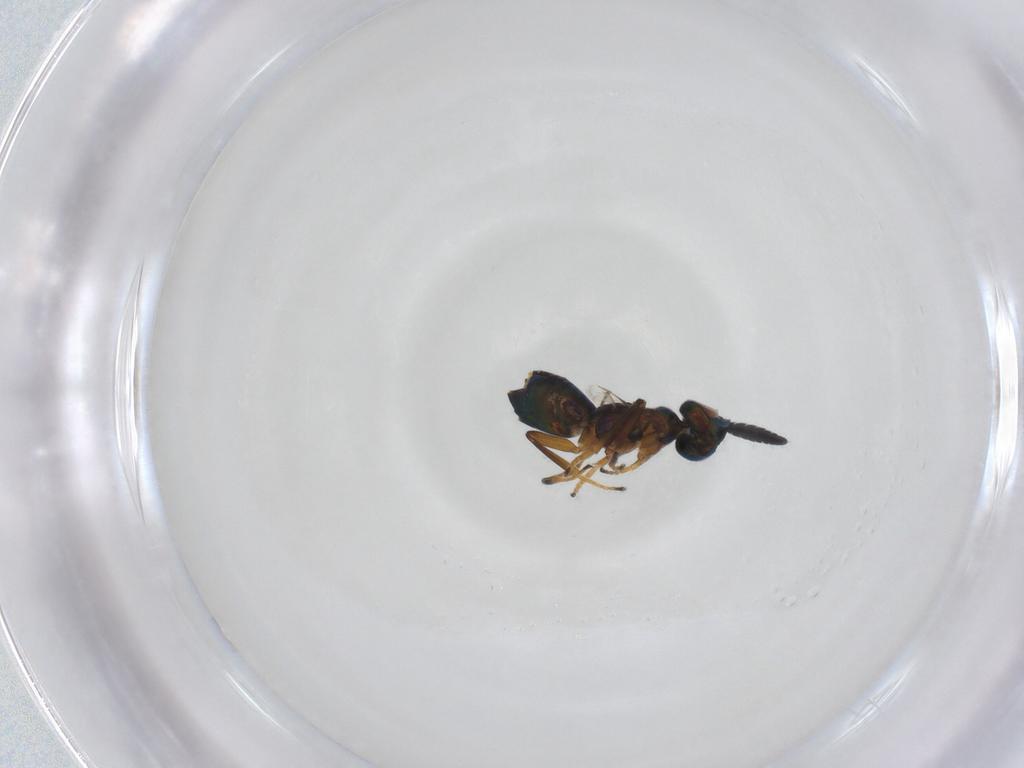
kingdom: Animalia
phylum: Arthropoda
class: Insecta
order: Hymenoptera
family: Encyrtidae
